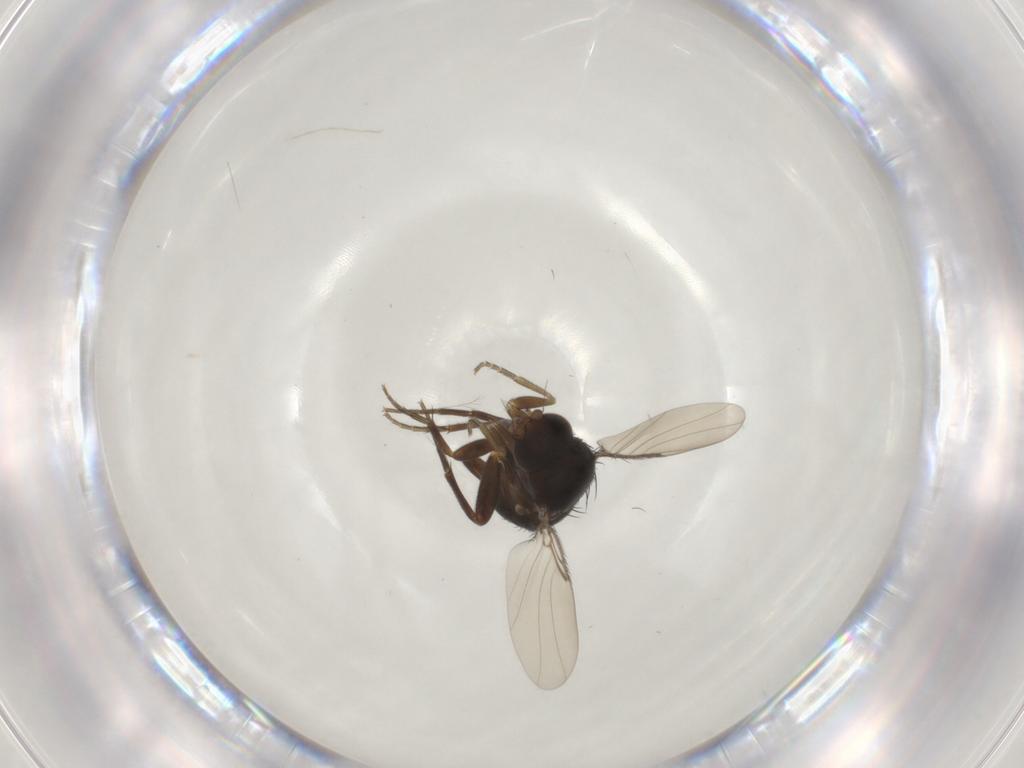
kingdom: Animalia
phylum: Arthropoda
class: Insecta
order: Diptera
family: Phoridae
